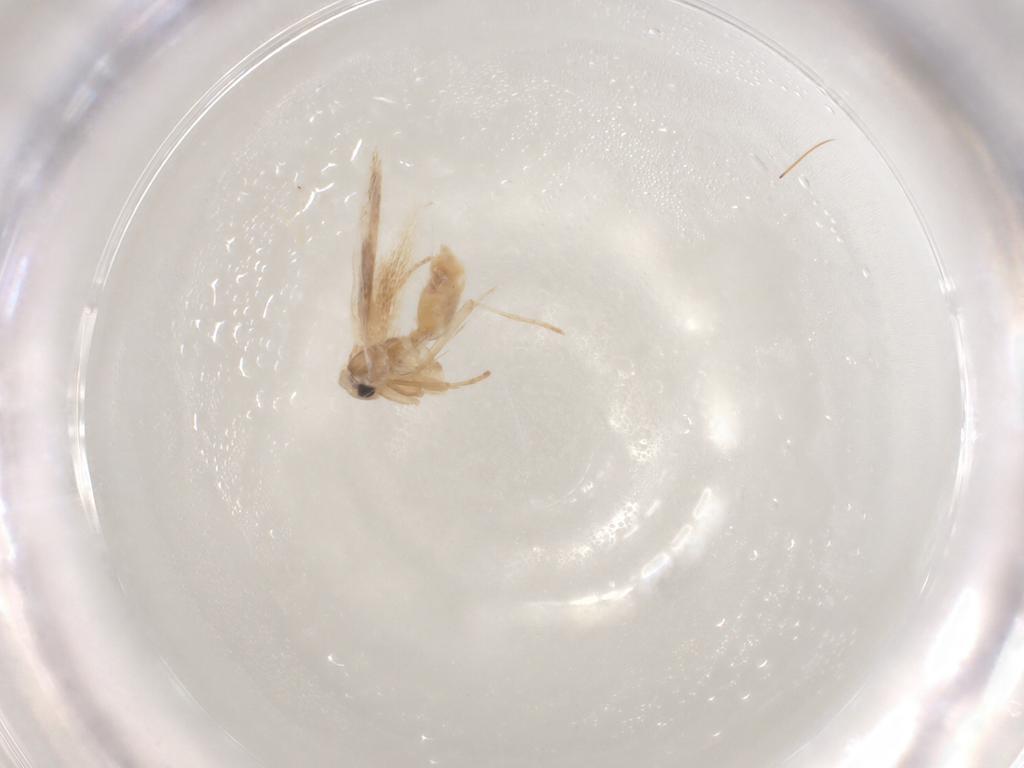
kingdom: Animalia
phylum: Arthropoda
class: Insecta
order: Lepidoptera
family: Bucculatricidae
